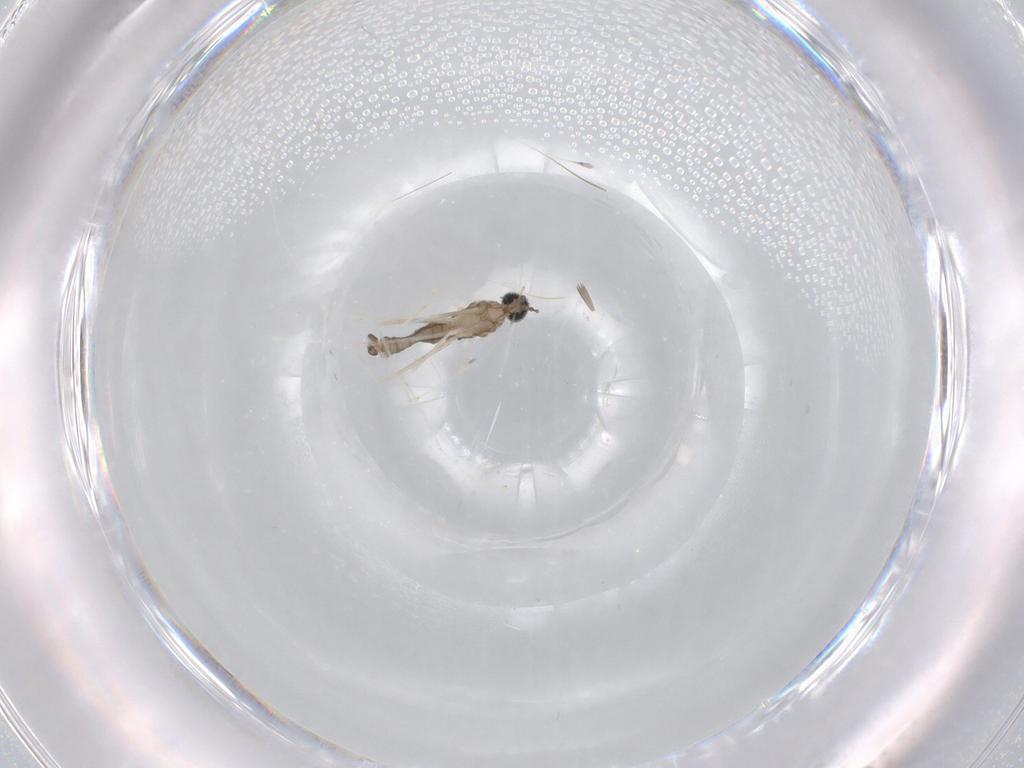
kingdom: Animalia
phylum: Arthropoda
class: Insecta
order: Diptera
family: Cecidomyiidae
